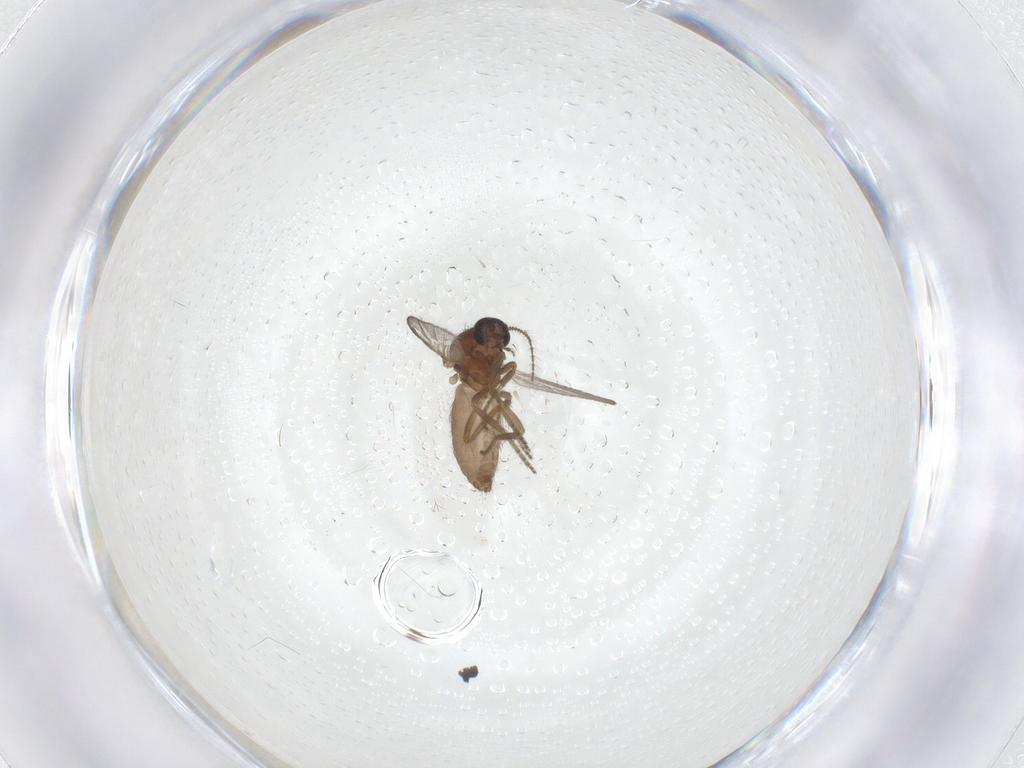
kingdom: Animalia
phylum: Arthropoda
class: Insecta
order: Diptera
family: Ceratopogonidae
